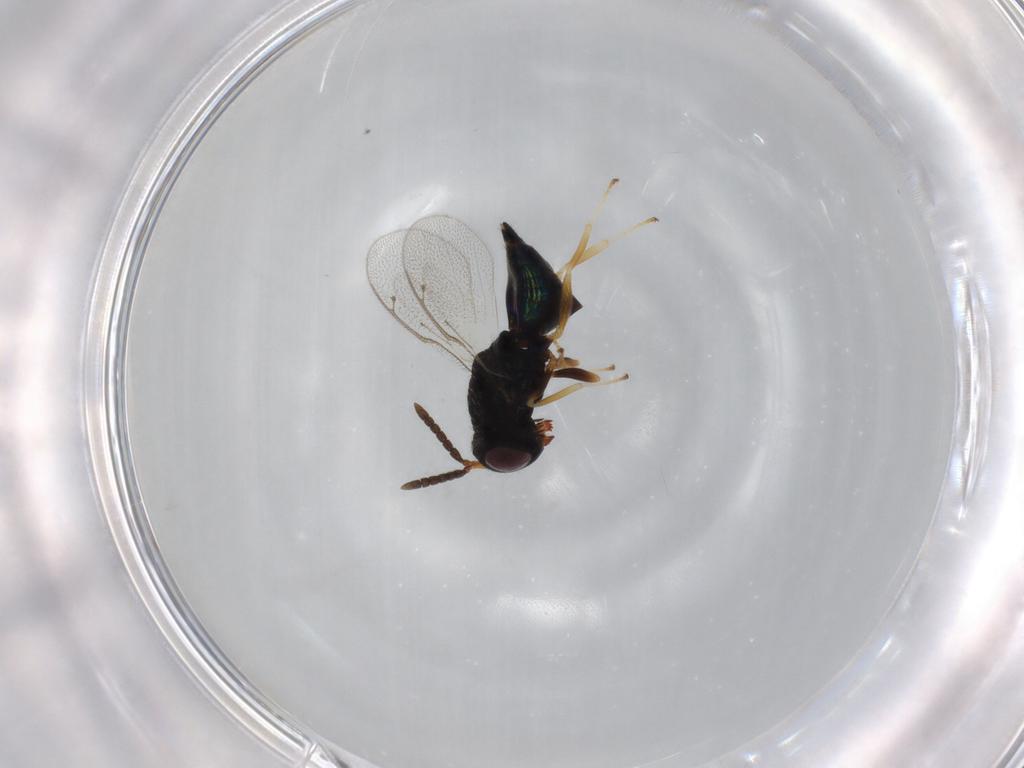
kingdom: Animalia
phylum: Arthropoda
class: Insecta
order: Hymenoptera
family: Pteromalidae
